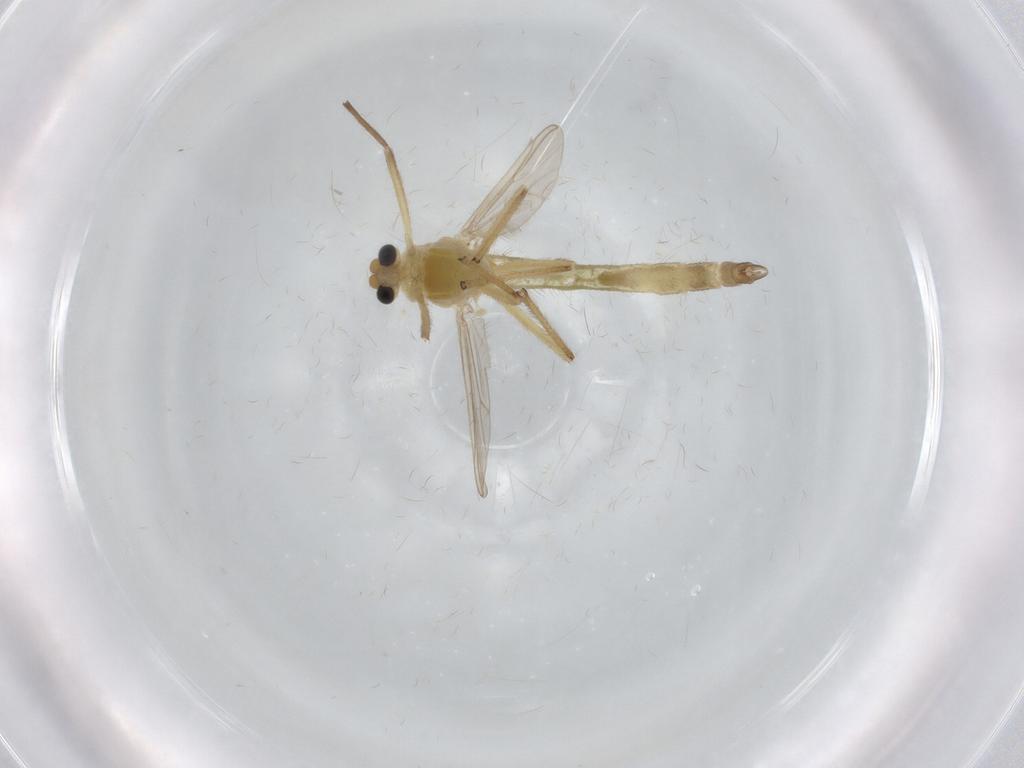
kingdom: Animalia
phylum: Arthropoda
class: Insecta
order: Diptera
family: Chironomidae
